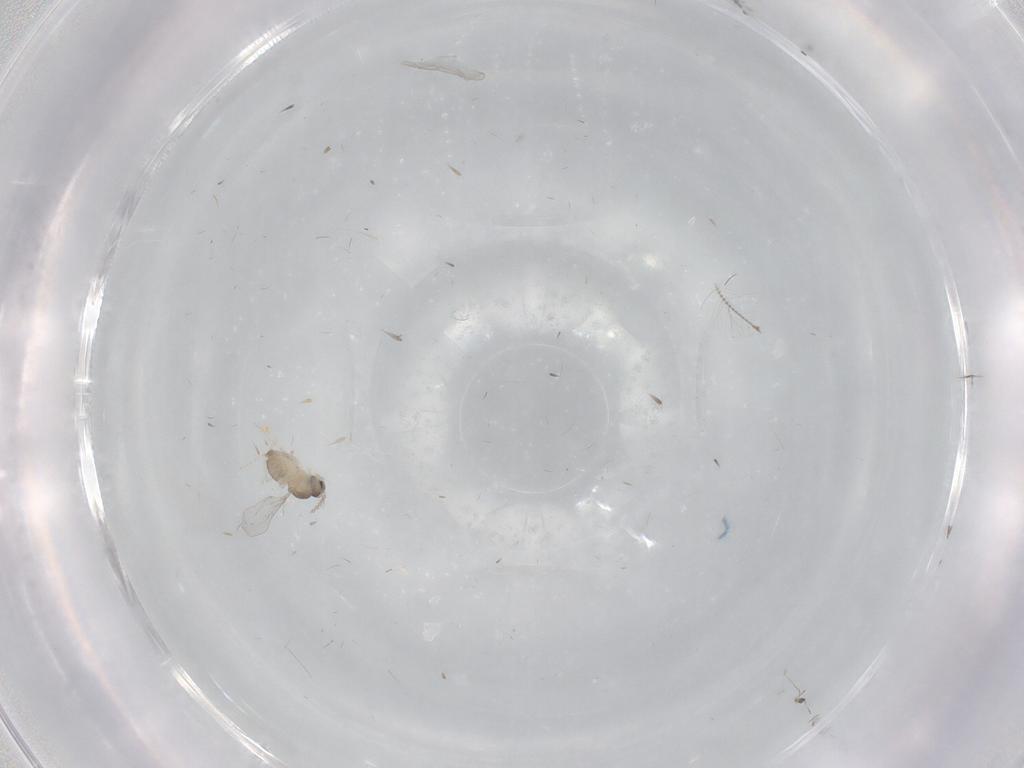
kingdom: Animalia
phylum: Arthropoda
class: Insecta
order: Diptera
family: Cecidomyiidae
